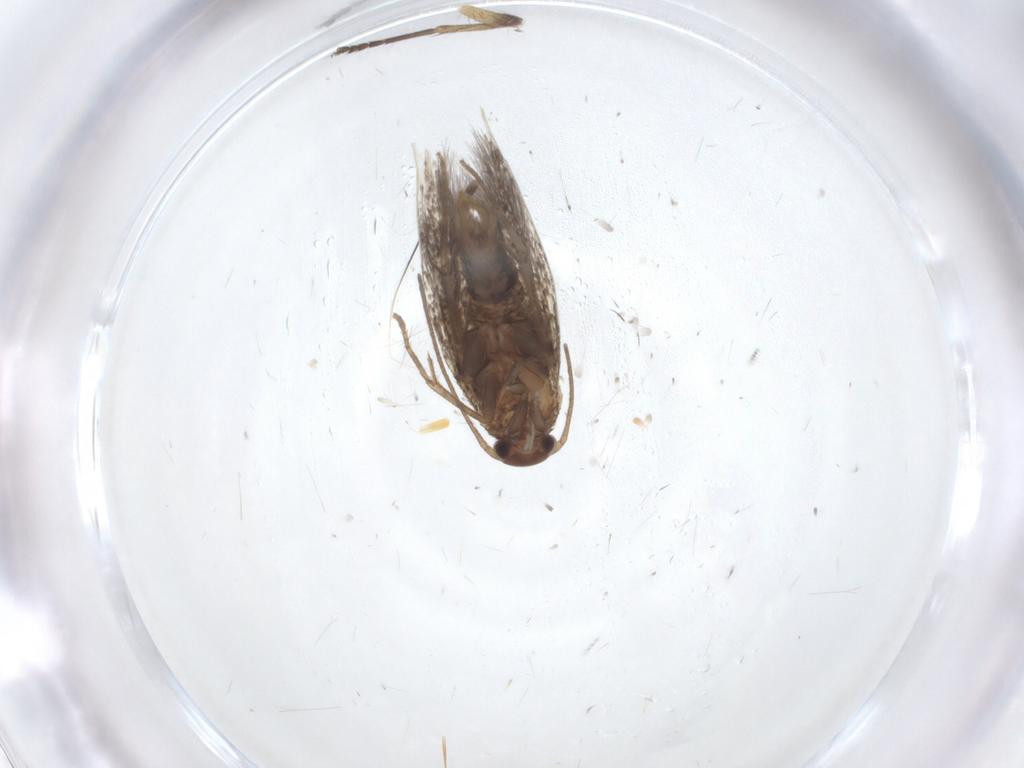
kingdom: Animalia
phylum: Arthropoda
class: Insecta
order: Lepidoptera
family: Elachistidae
